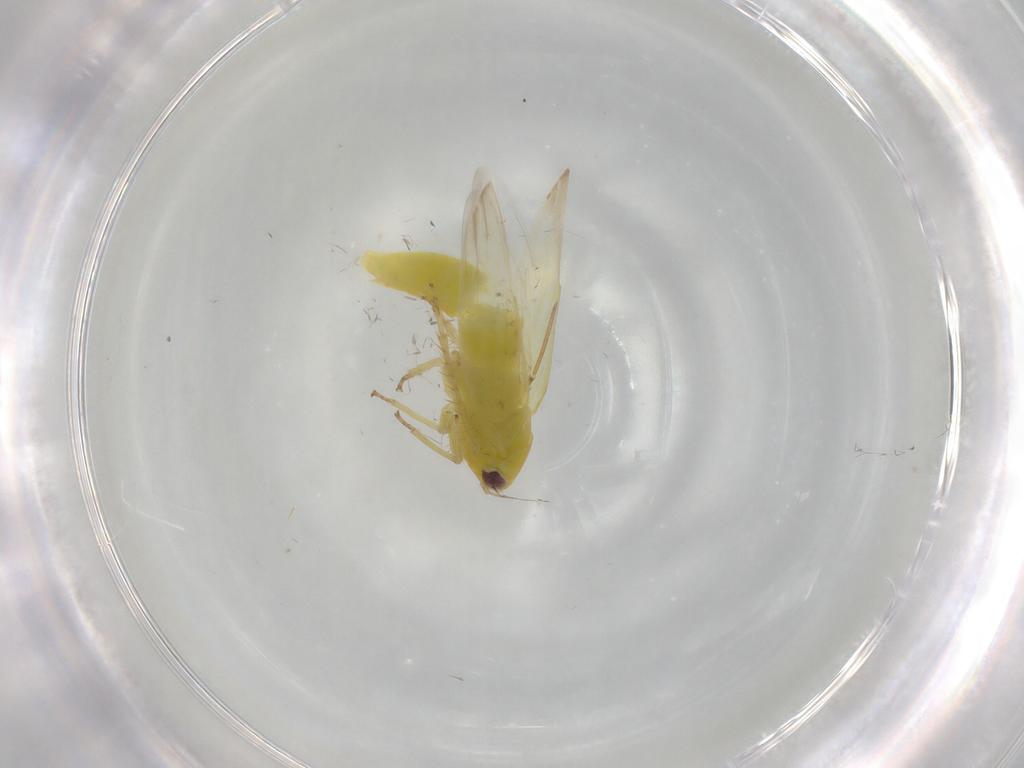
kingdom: Animalia
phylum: Arthropoda
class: Insecta
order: Hemiptera
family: Cicadellidae
